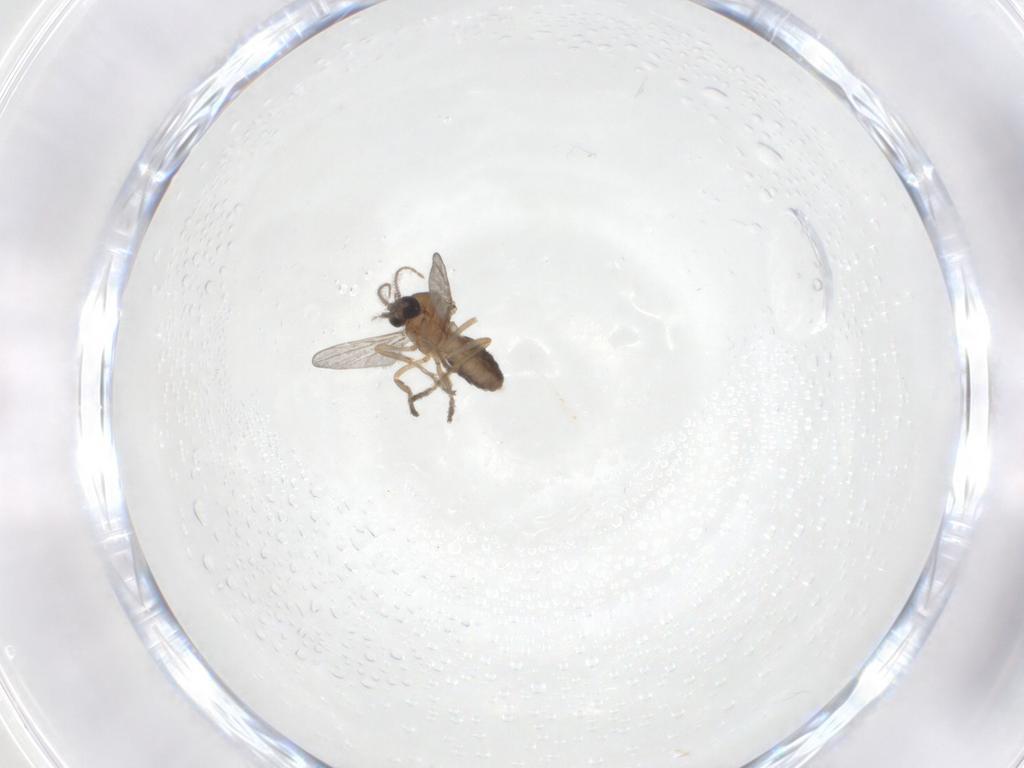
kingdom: Animalia
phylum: Arthropoda
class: Insecta
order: Diptera
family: Ceratopogonidae
